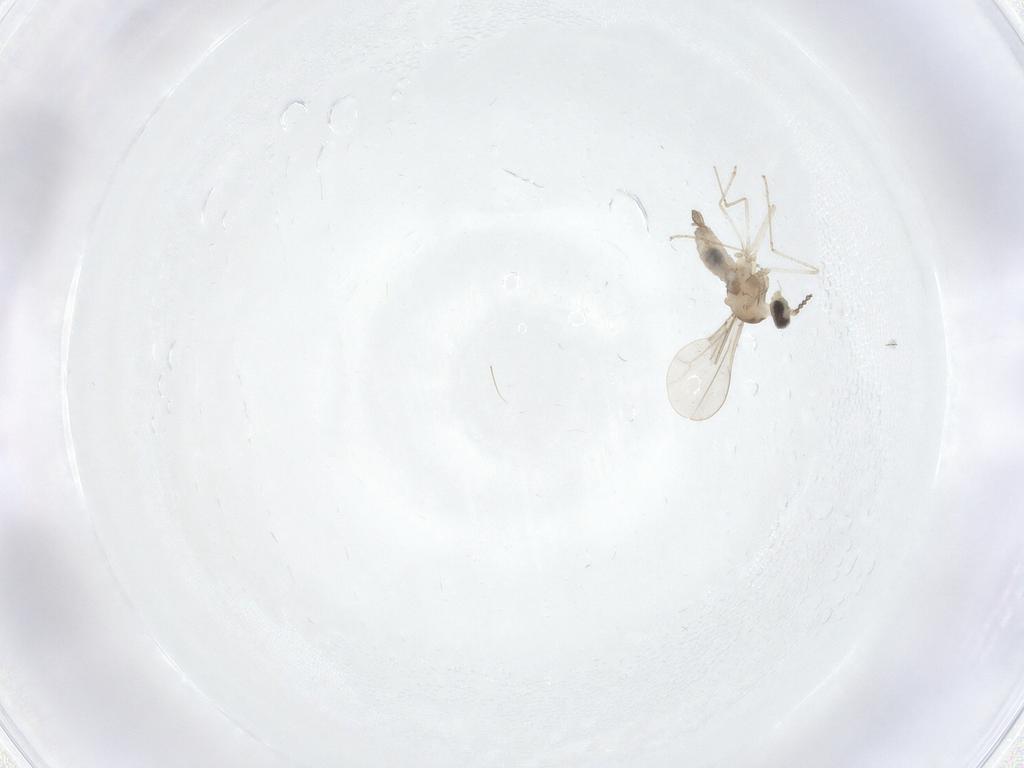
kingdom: Animalia
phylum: Arthropoda
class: Insecta
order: Diptera
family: Cecidomyiidae
